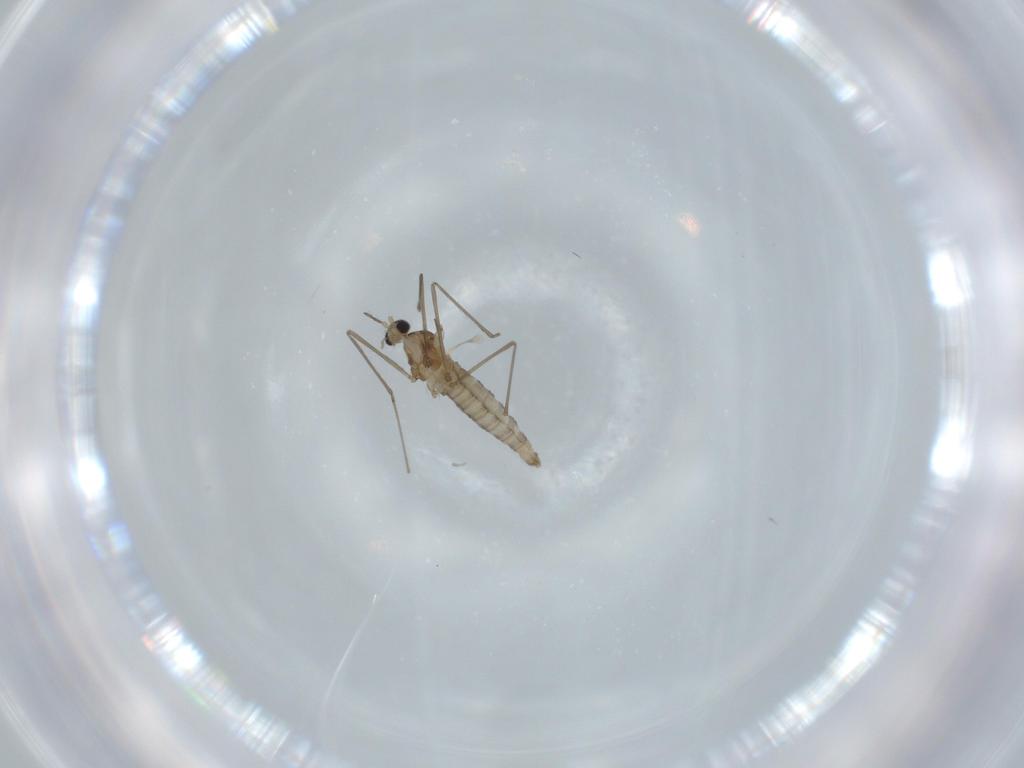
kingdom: Animalia
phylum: Arthropoda
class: Insecta
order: Diptera
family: Cecidomyiidae
